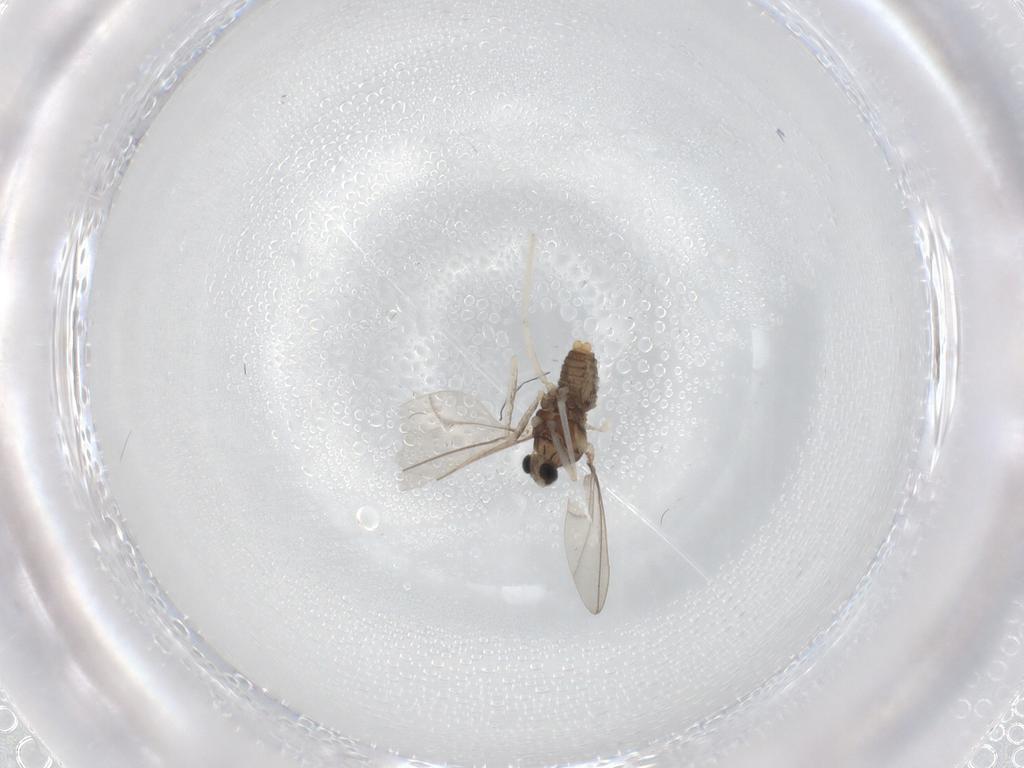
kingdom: Animalia
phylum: Arthropoda
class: Insecta
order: Diptera
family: Cecidomyiidae
